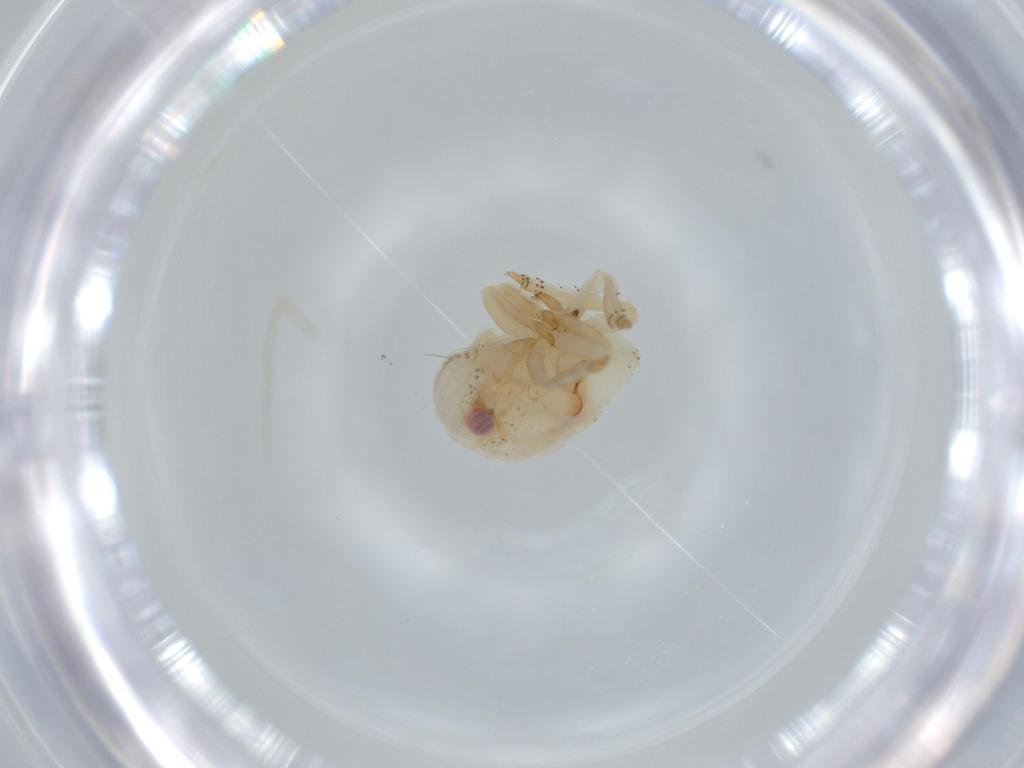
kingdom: Animalia
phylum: Arthropoda
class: Insecta
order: Hemiptera
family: Acanaloniidae
